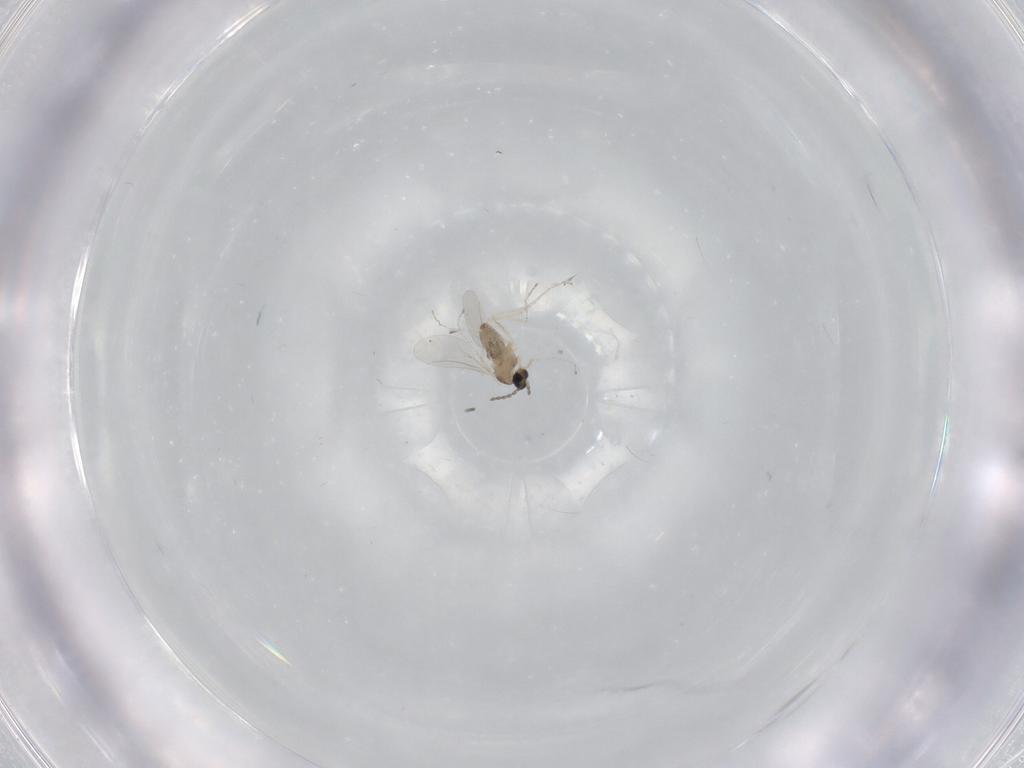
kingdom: Animalia
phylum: Arthropoda
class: Insecta
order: Diptera
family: Cecidomyiidae
